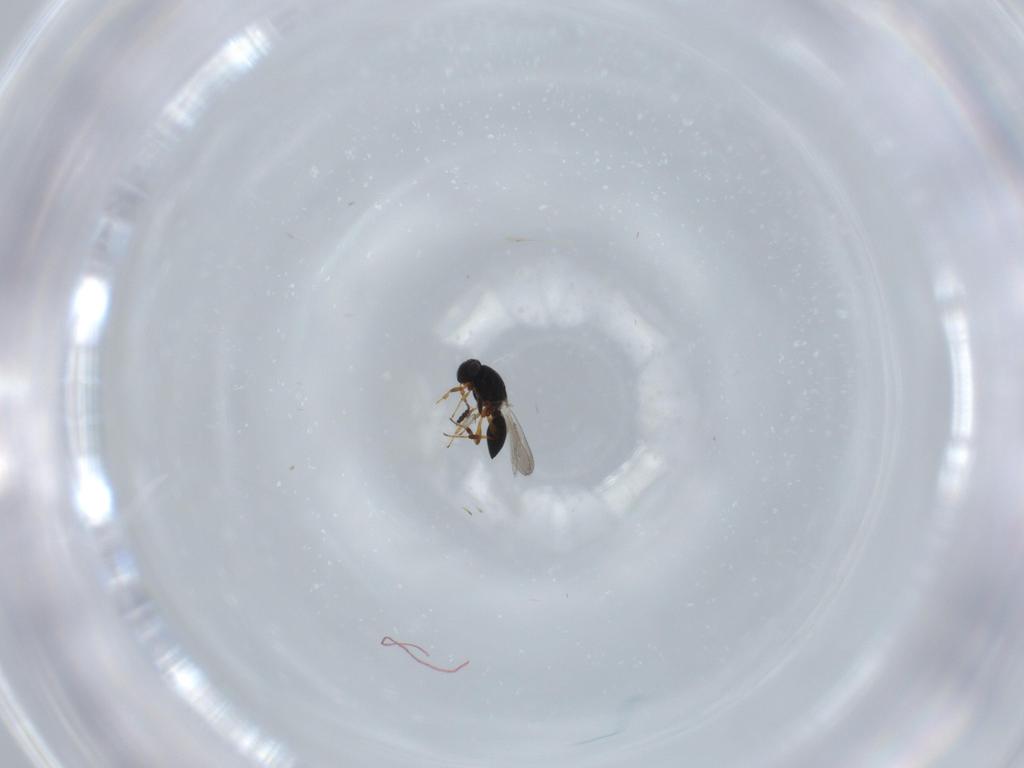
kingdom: Animalia
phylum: Arthropoda
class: Insecta
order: Hymenoptera
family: Platygastridae
